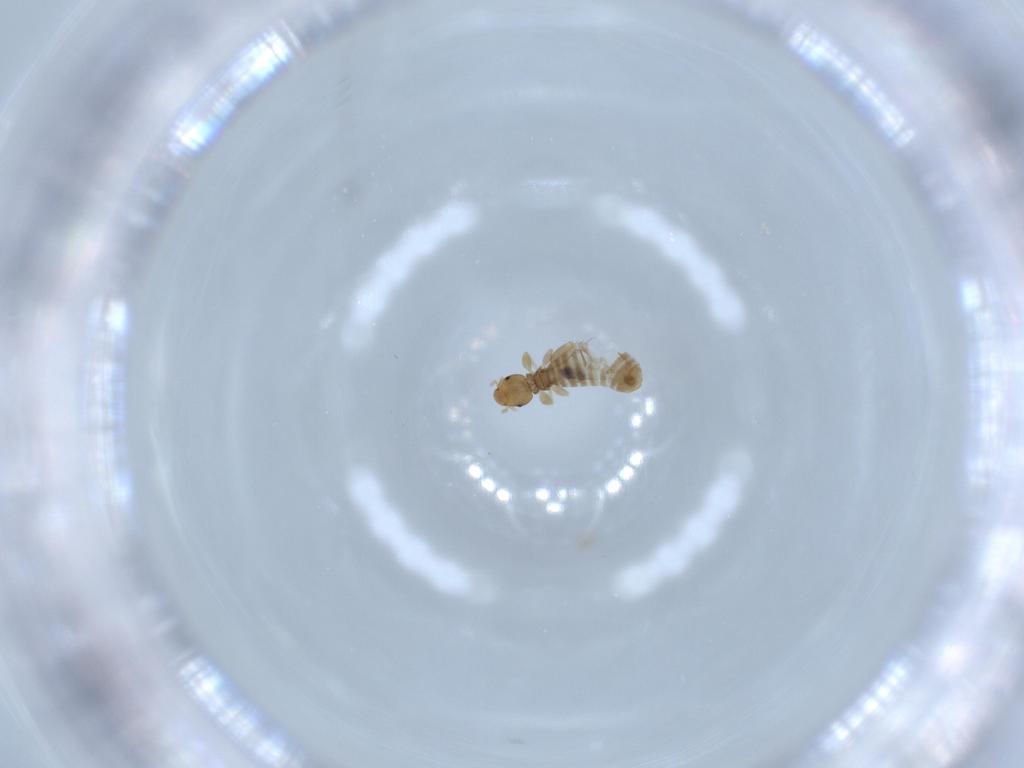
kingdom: Animalia
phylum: Arthropoda
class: Insecta
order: Psocodea
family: Liposcelididae
